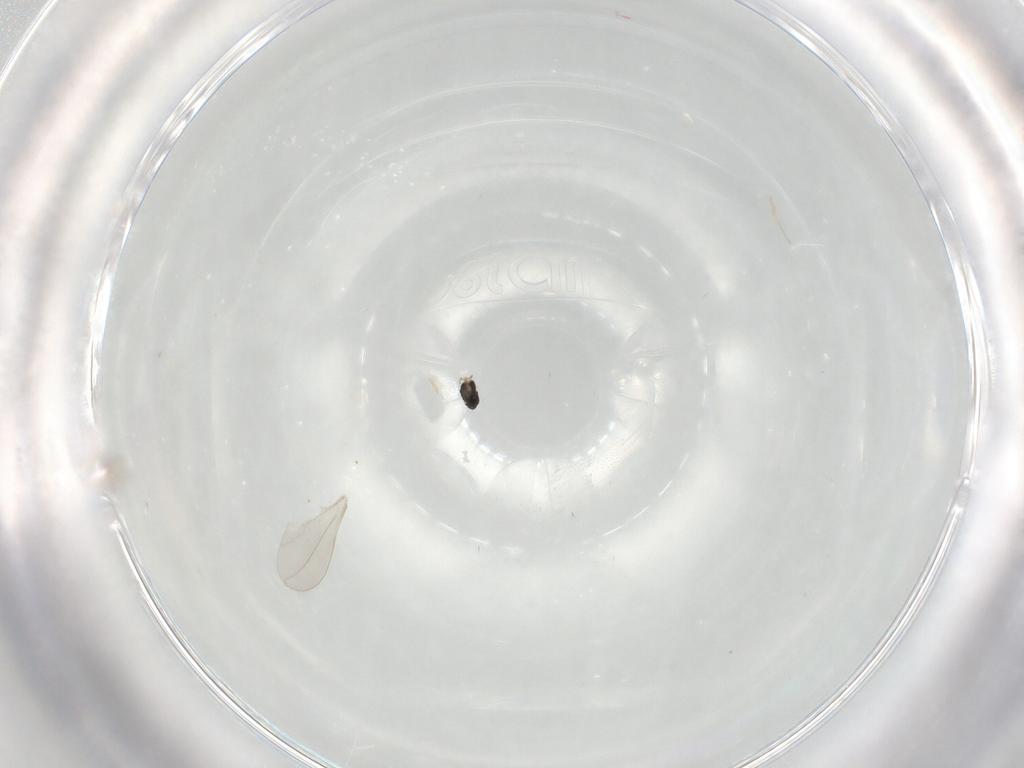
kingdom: Animalia
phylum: Arthropoda
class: Insecta
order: Diptera
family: Cecidomyiidae
